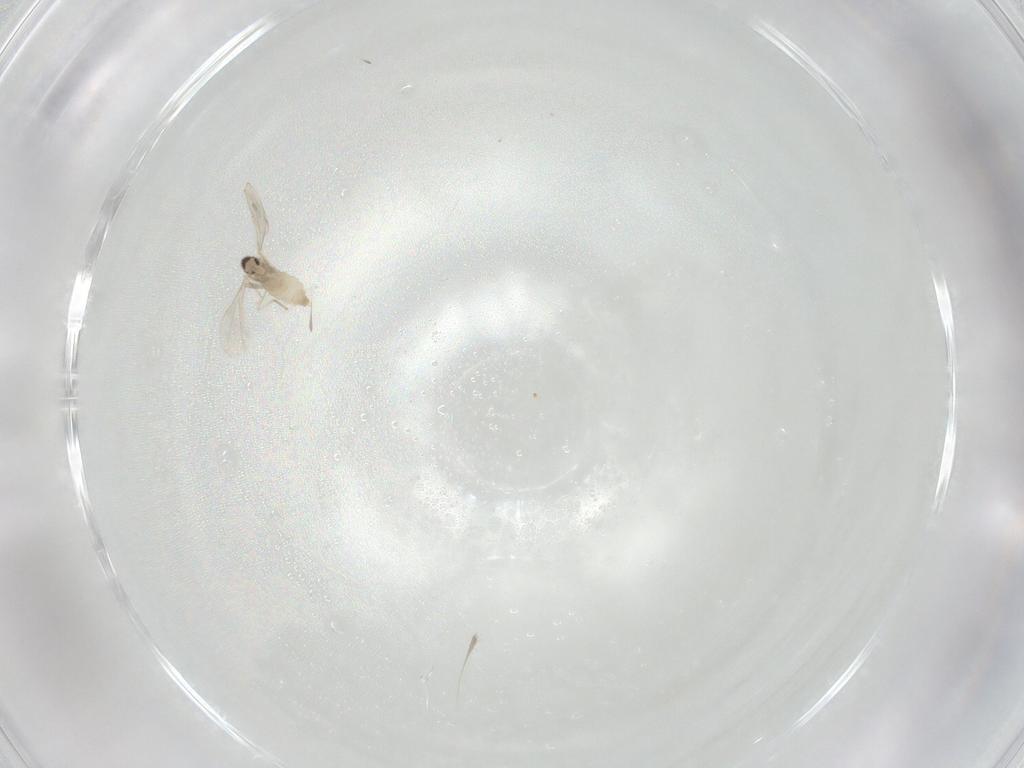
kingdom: Animalia
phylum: Arthropoda
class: Insecta
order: Diptera
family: Cecidomyiidae
